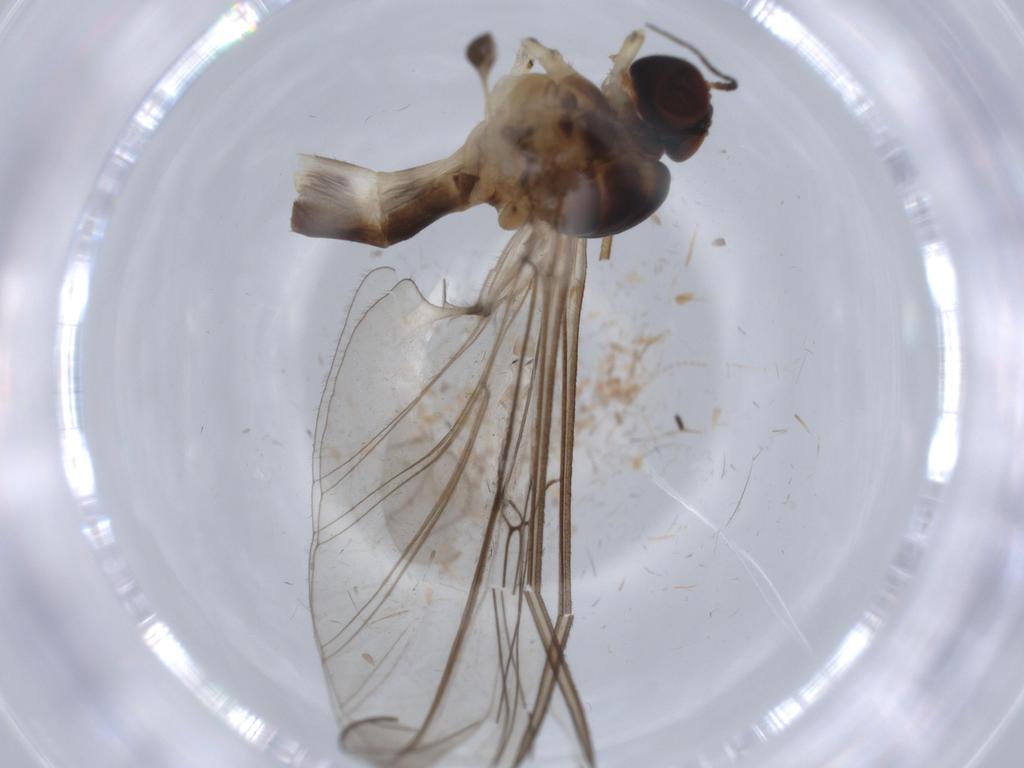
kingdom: Animalia
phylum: Arthropoda
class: Insecta
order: Diptera
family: Blephariceridae
